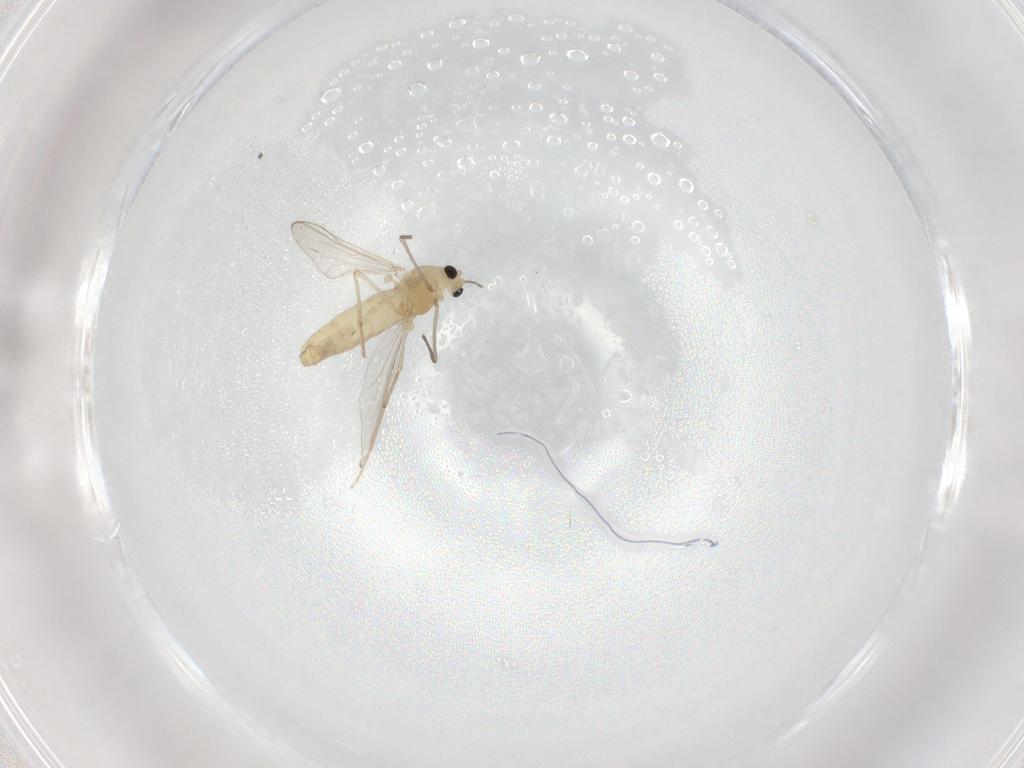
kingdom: Animalia
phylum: Arthropoda
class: Insecta
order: Diptera
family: Chironomidae
